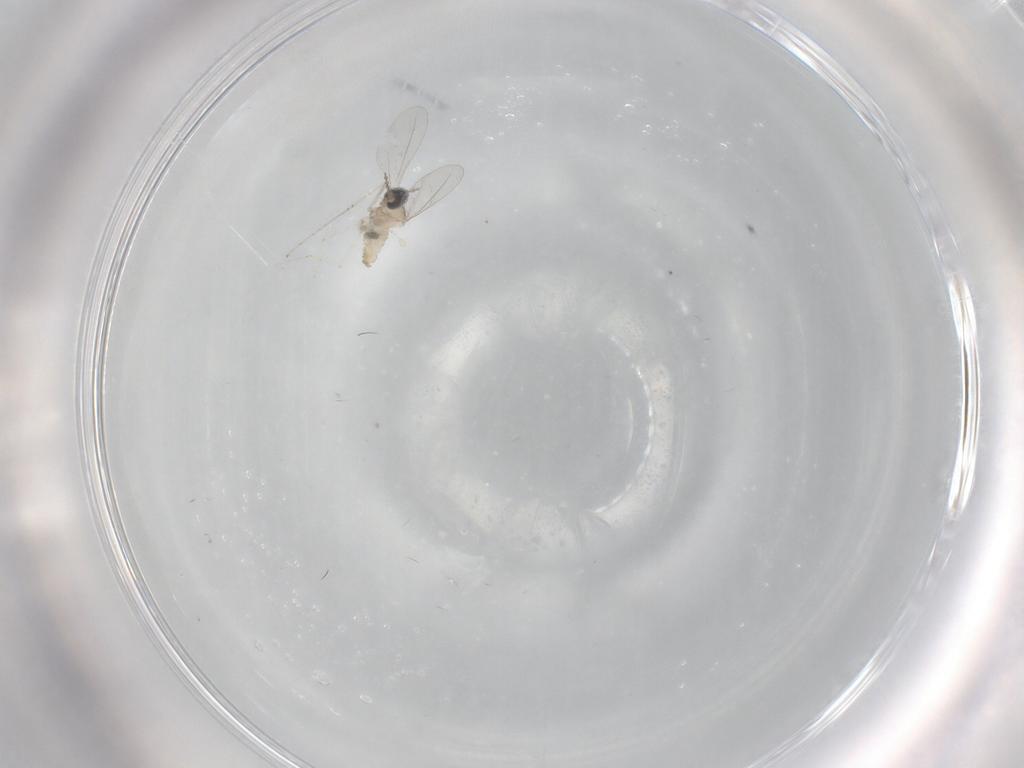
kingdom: Animalia
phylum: Arthropoda
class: Insecta
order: Diptera
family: Cecidomyiidae
